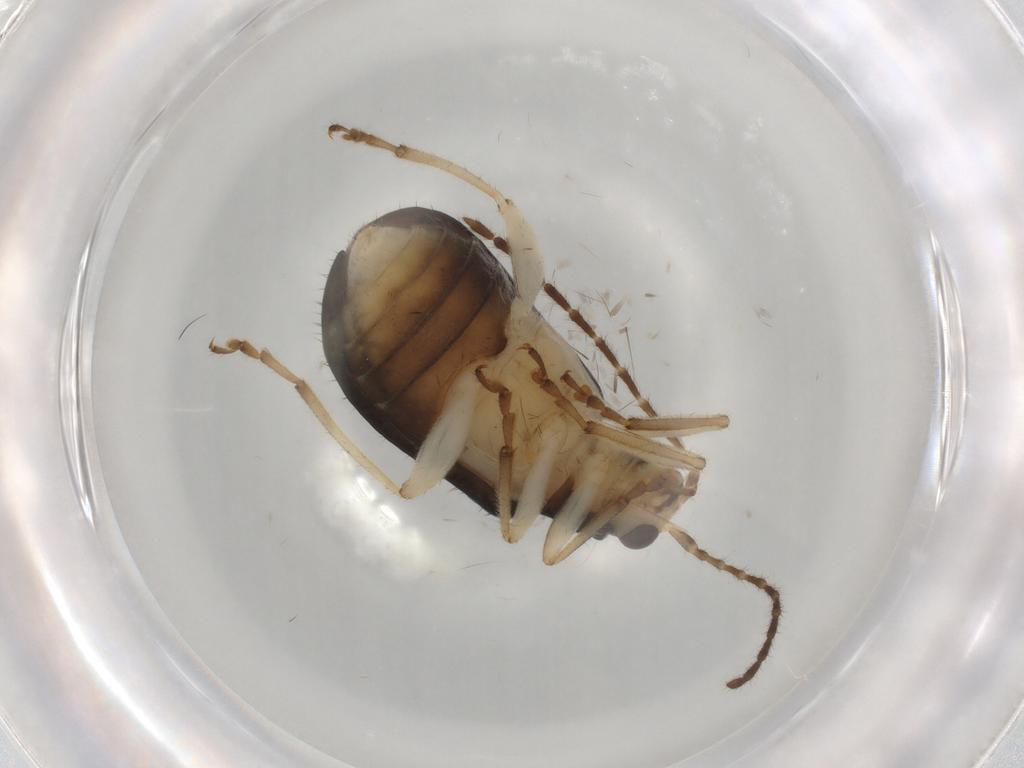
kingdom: Animalia
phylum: Arthropoda
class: Insecta
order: Coleoptera
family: Chrysomelidae
